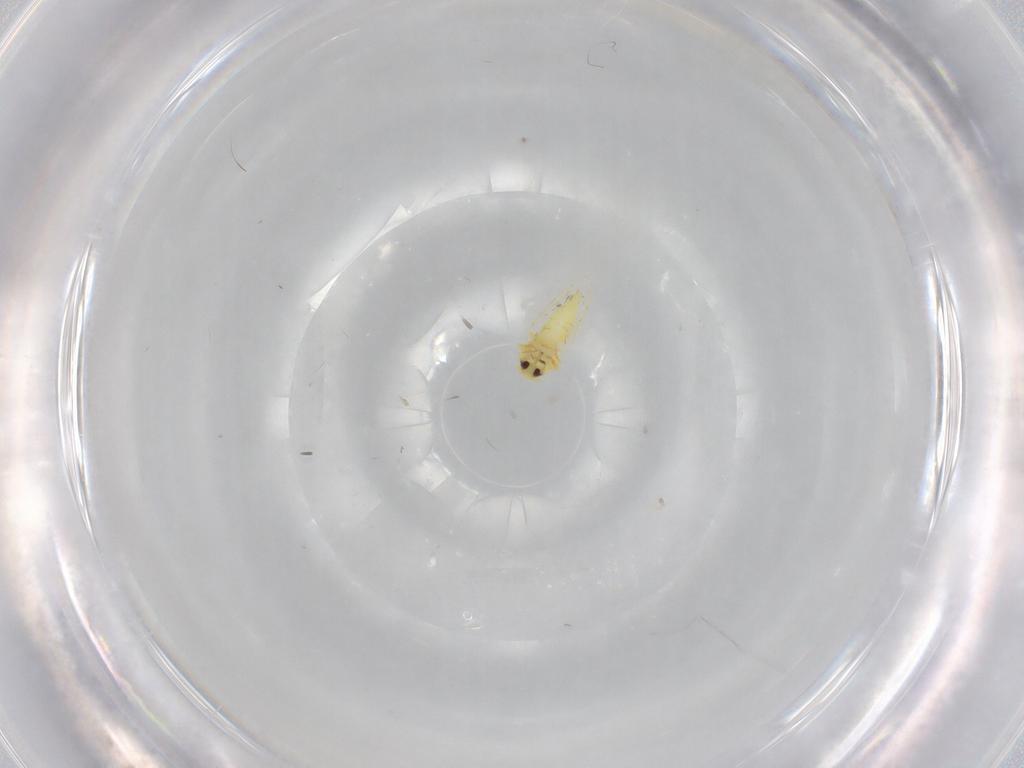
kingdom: Animalia
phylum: Arthropoda
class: Insecta
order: Hemiptera
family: Aleyrodidae
